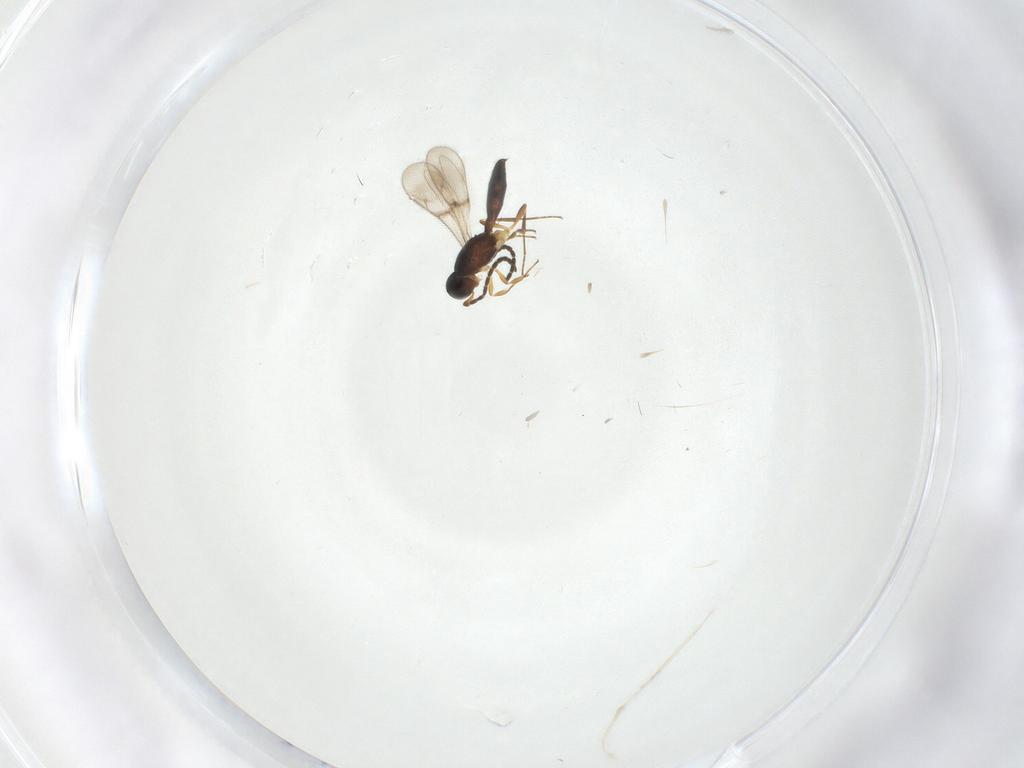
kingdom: Animalia
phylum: Arthropoda
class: Insecta
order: Hymenoptera
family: Scelionidae
